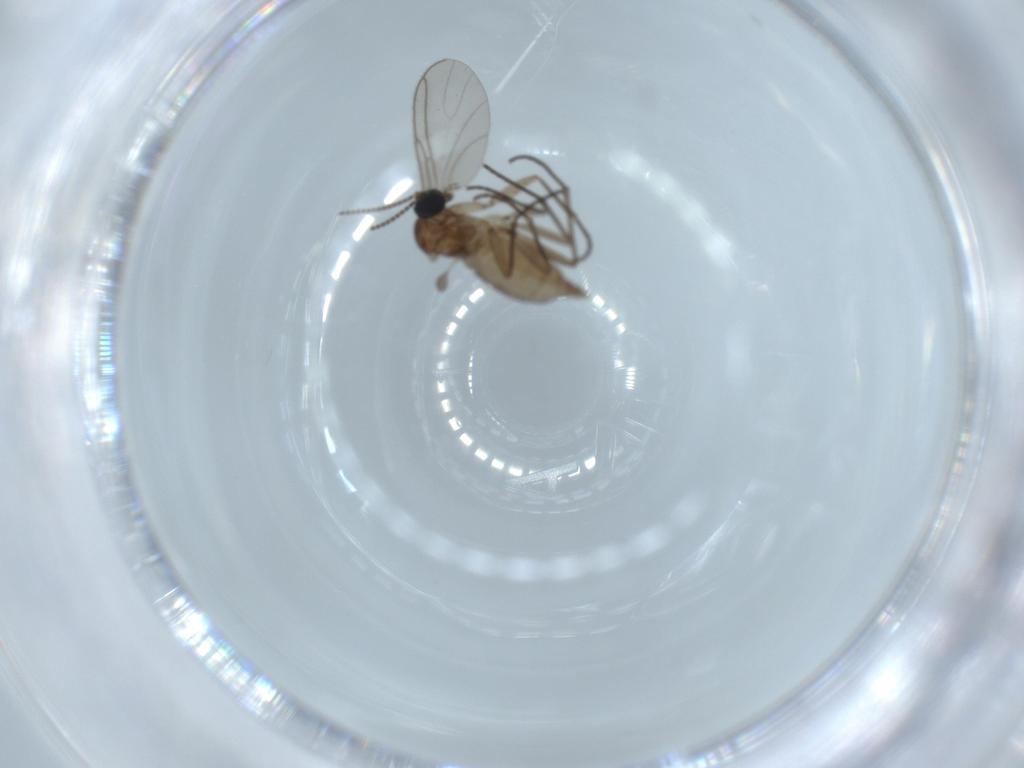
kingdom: Animalia
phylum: Arthropoda
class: Insecta
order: Diptera
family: Sciaridae
